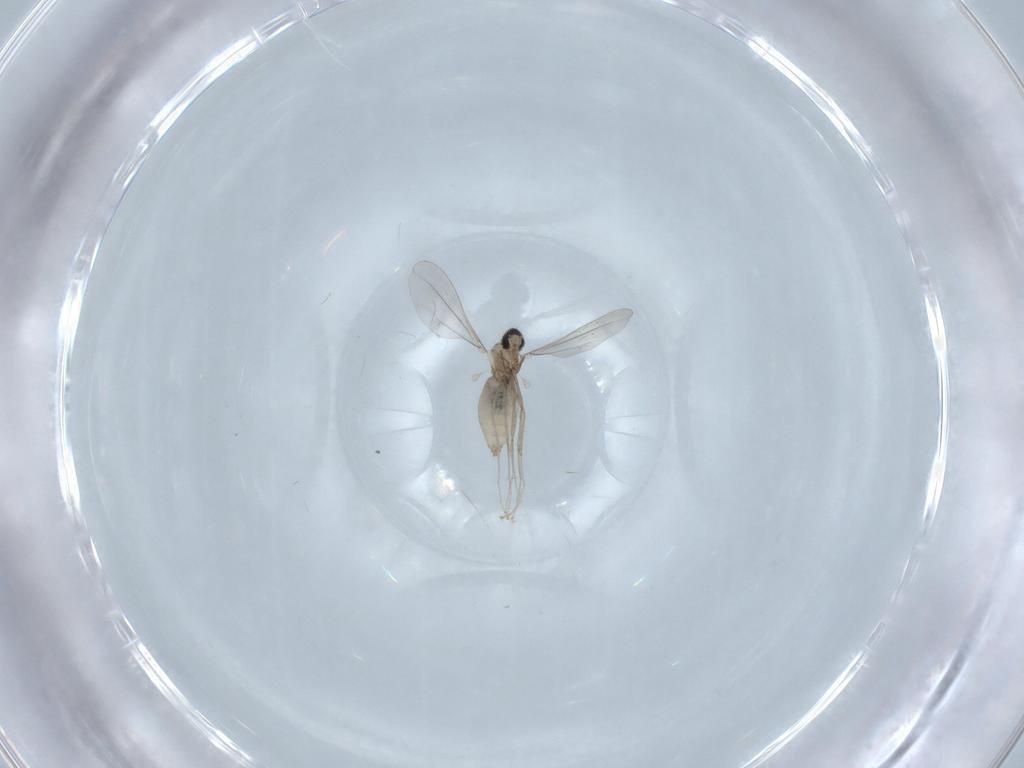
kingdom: Animalia
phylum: Arthropoda
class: Insecta
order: Diptera
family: Cecidomyiidae
